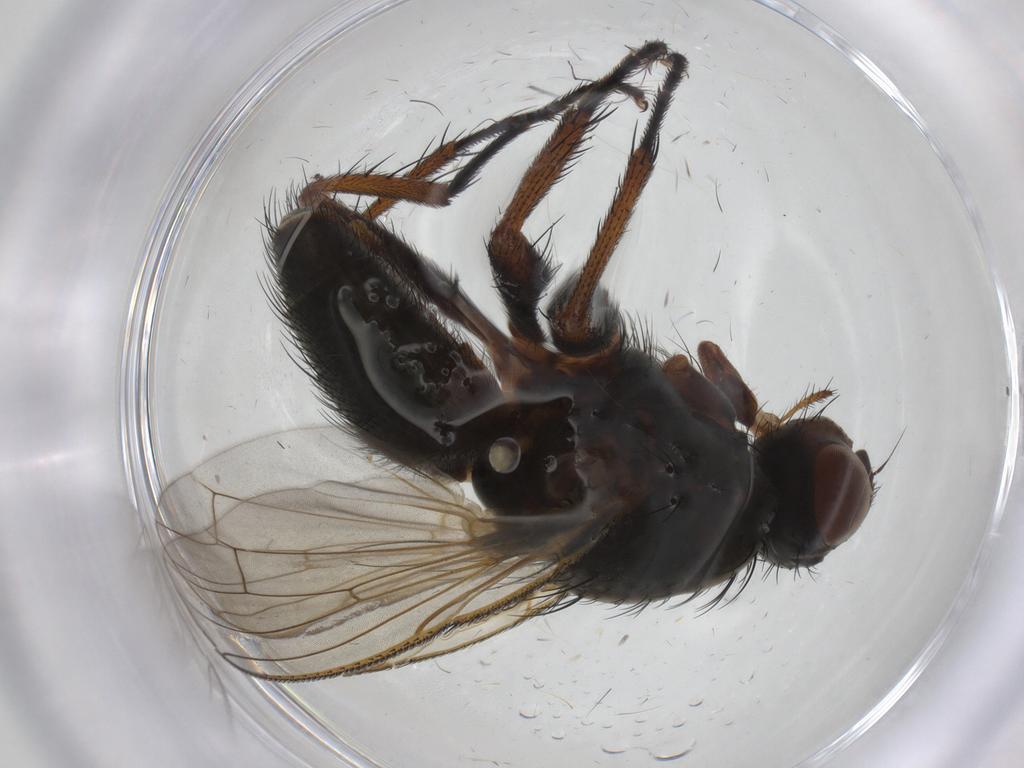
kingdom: Animalia
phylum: Arthropoda
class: Insecta
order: Diptera
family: Anthomyiidae
